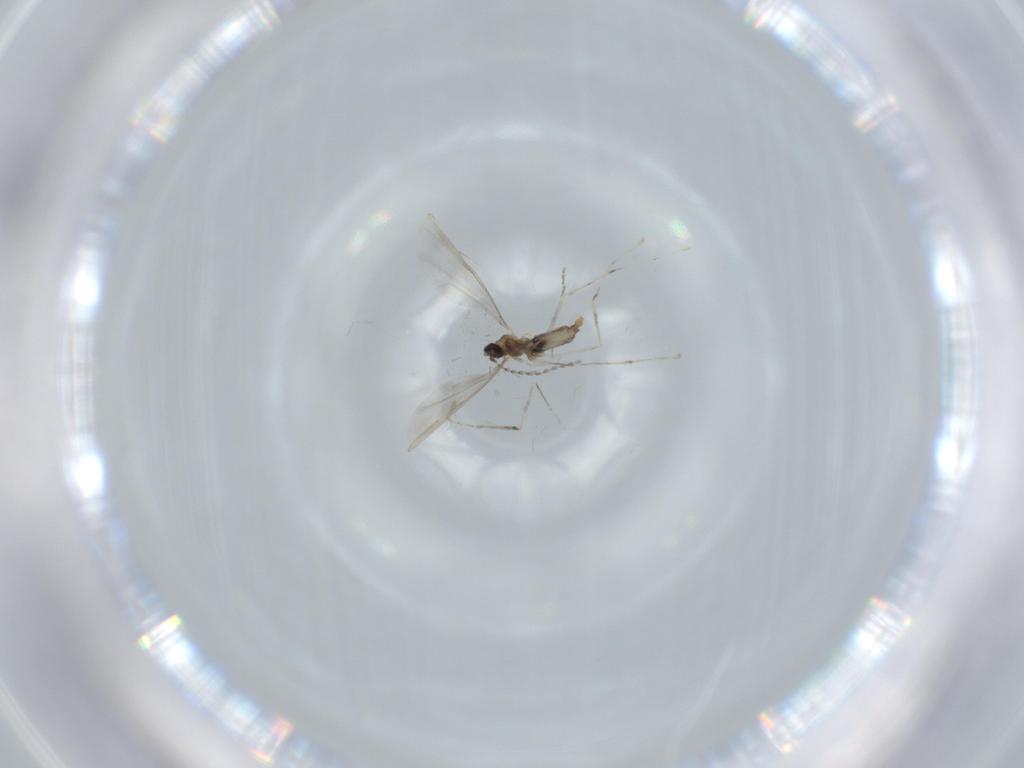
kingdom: Animalia
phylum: Arthropoda
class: Insecta
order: Diptera
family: Cecidomyiidae
